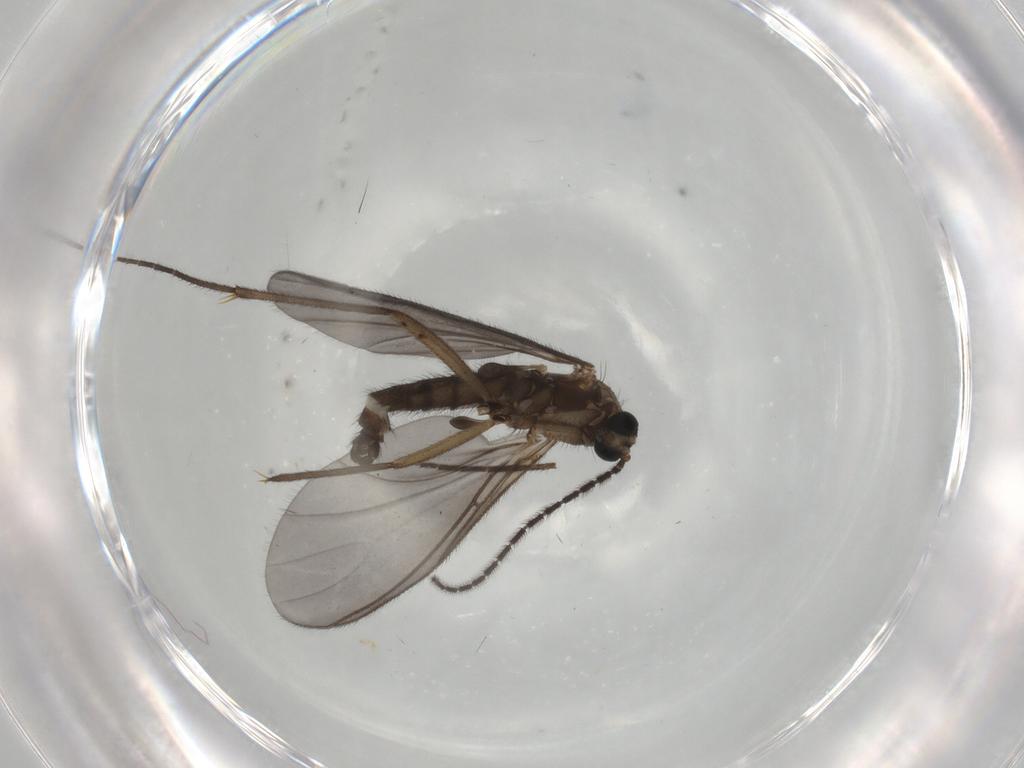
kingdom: Animalia
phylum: Arthropoda
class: Insecta
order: Diptera
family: Sciaridae
